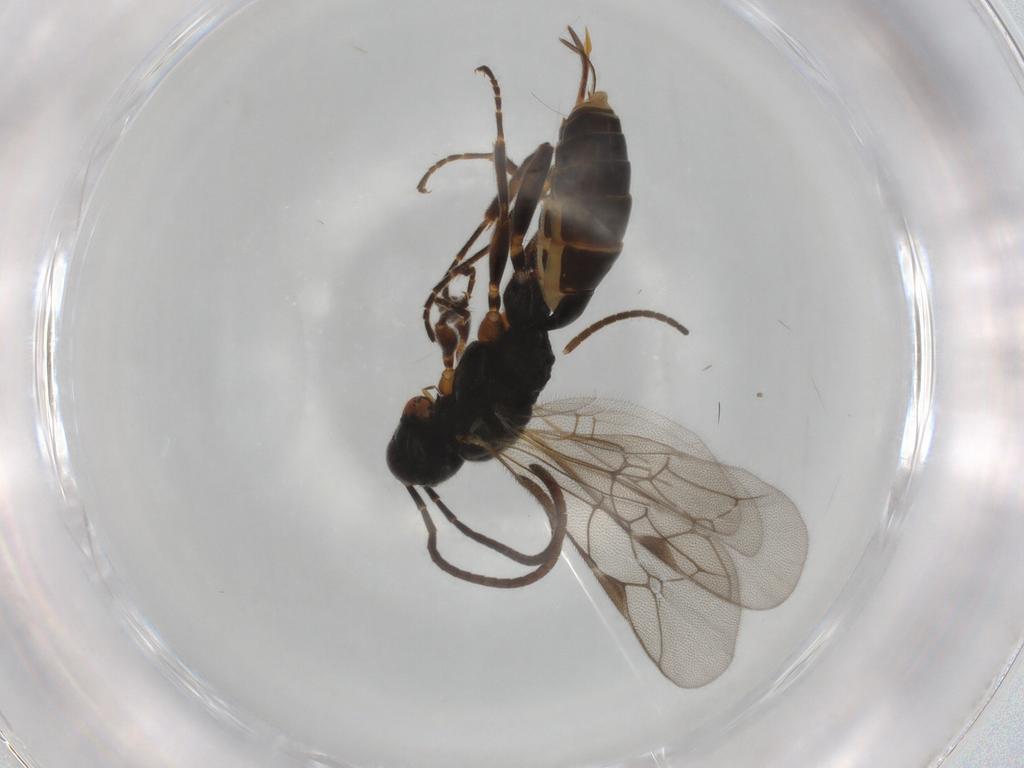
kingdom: Animalia
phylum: Arthropoda
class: Insecta
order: Hymenoptera
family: Ichneumonidae
